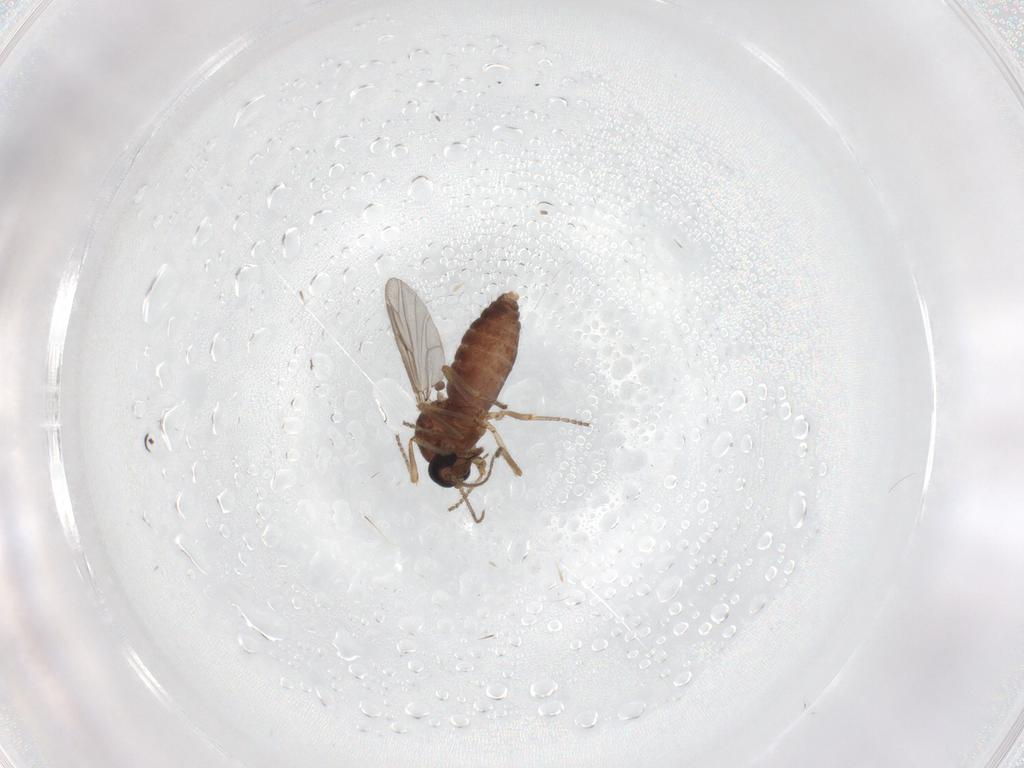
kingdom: Animalia
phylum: Arthropoda
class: Insecta
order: Diptera
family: Ceratopogonidae
